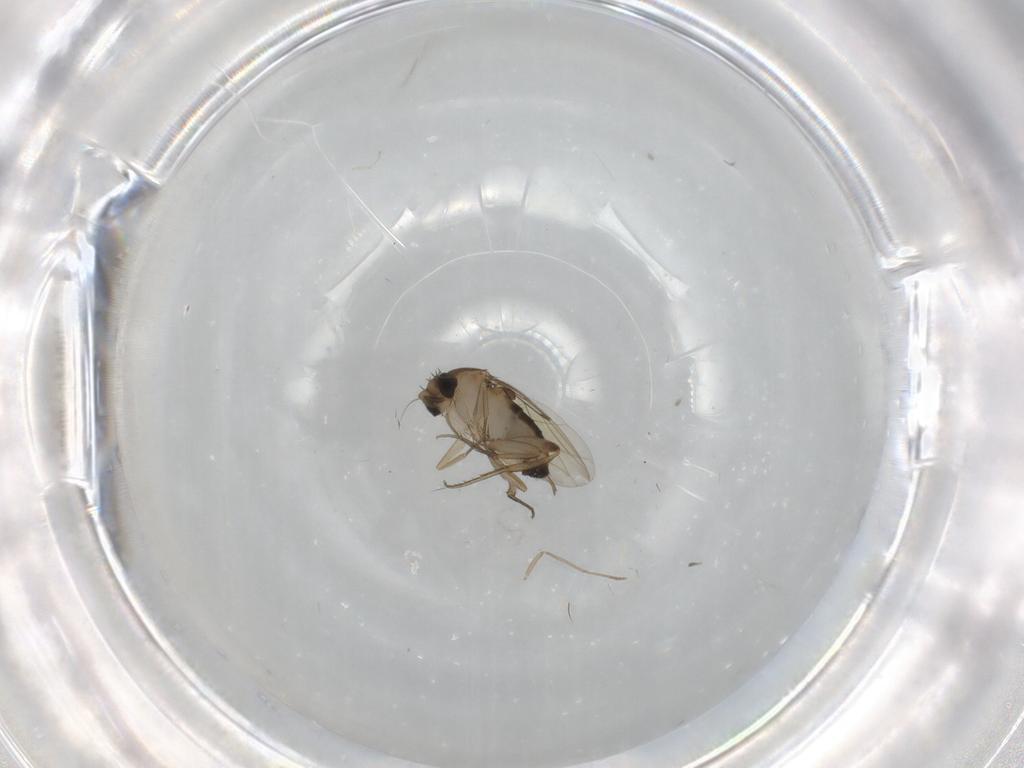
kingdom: Animalia
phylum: Arthropoda
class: Insecta
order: Diptera
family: Phoridae
